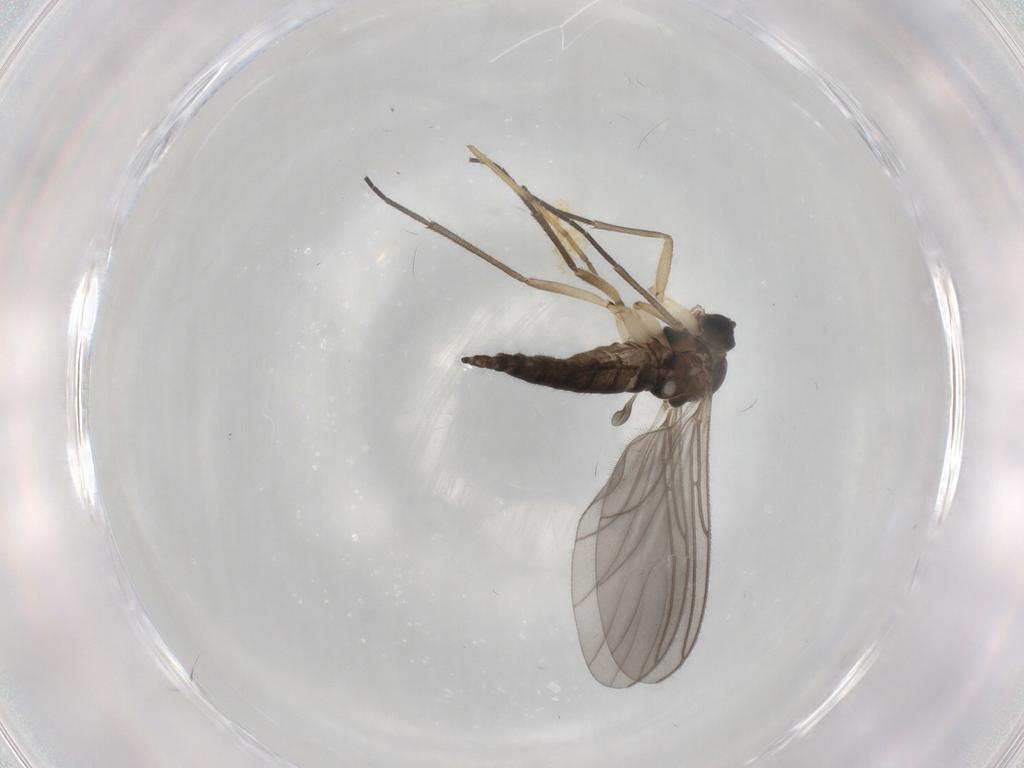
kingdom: Animalia
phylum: Arthropoda
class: Insecta
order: Diptera
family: Sciaridae
